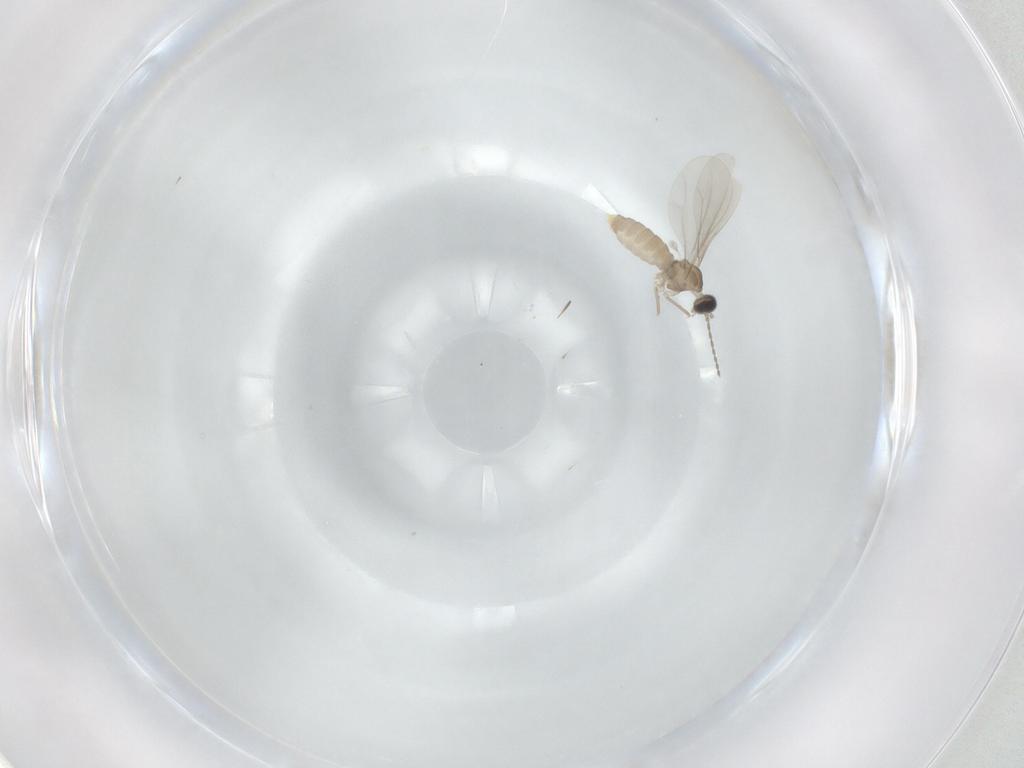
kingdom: Animalia
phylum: Arthropoda
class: Insecta
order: Diptera
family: Cecidomyiidae
